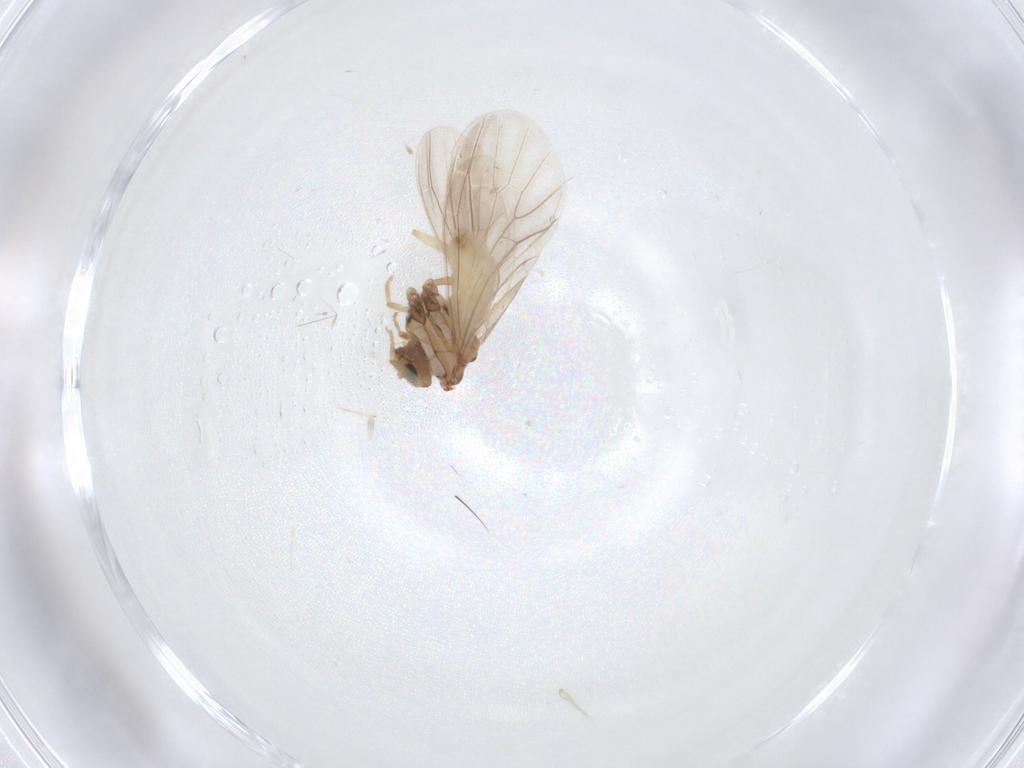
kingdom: Animalia
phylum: Arthropoda
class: Insecta
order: Neuroptera
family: Coniopterygidae
